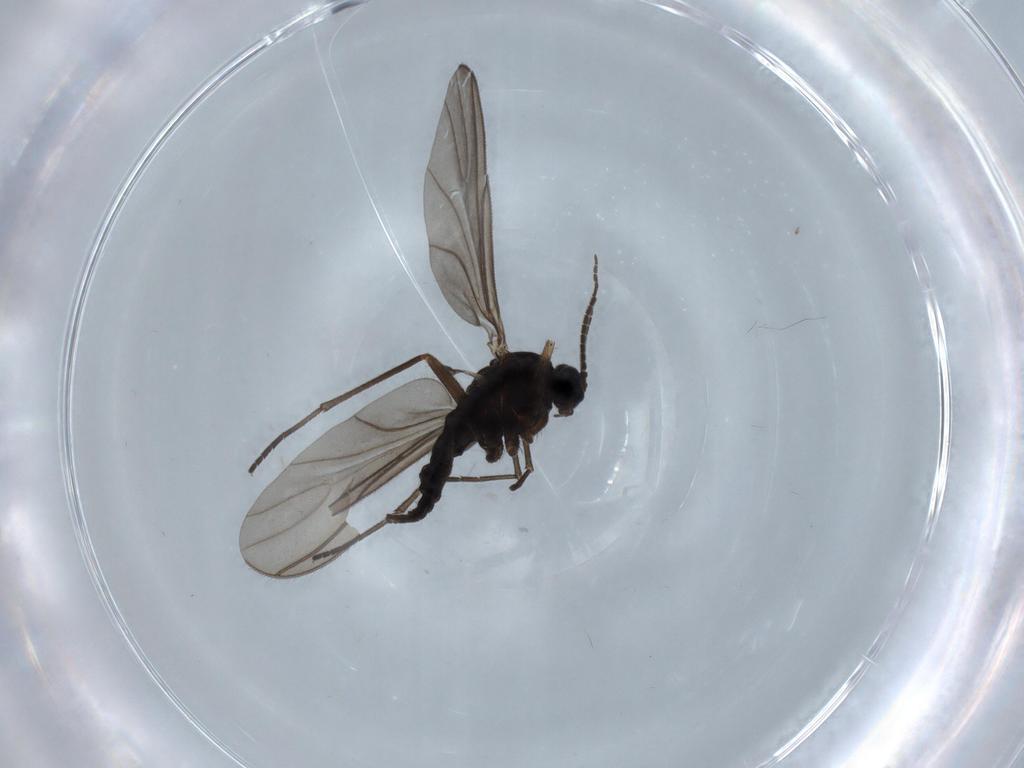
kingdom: Animalia
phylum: Arthropoda
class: Insecta
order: Diptera
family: Sciaridae
